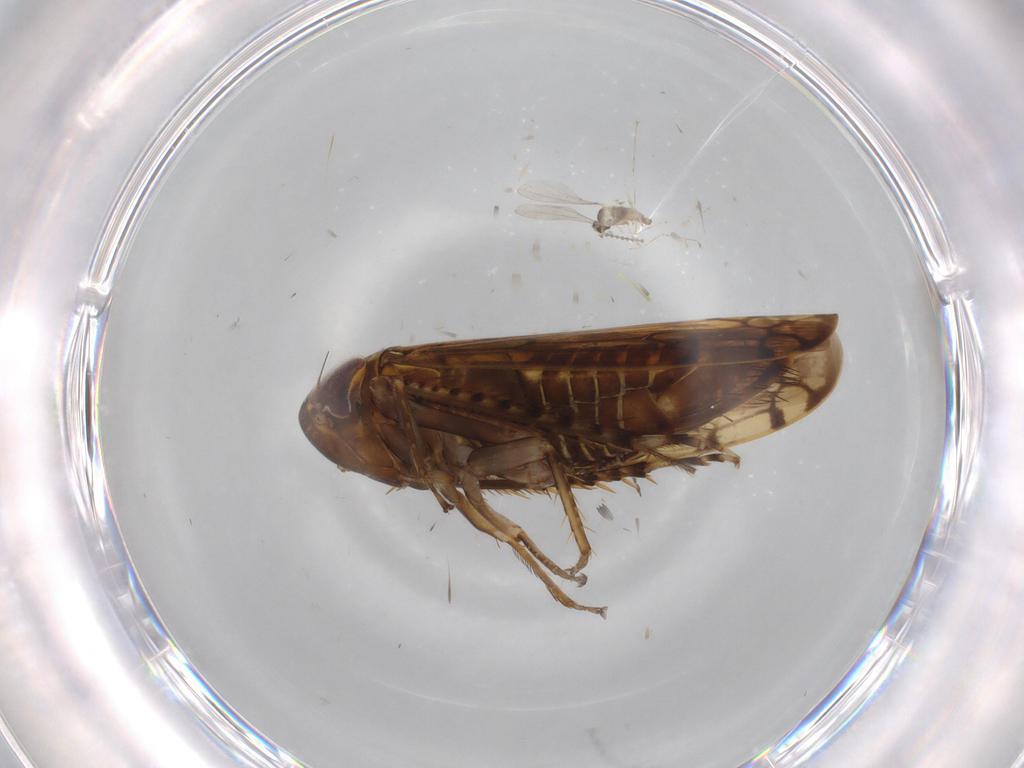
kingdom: Animalia
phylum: Arthropoda
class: Insecta
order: Hemiptera
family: Cicadellidae
